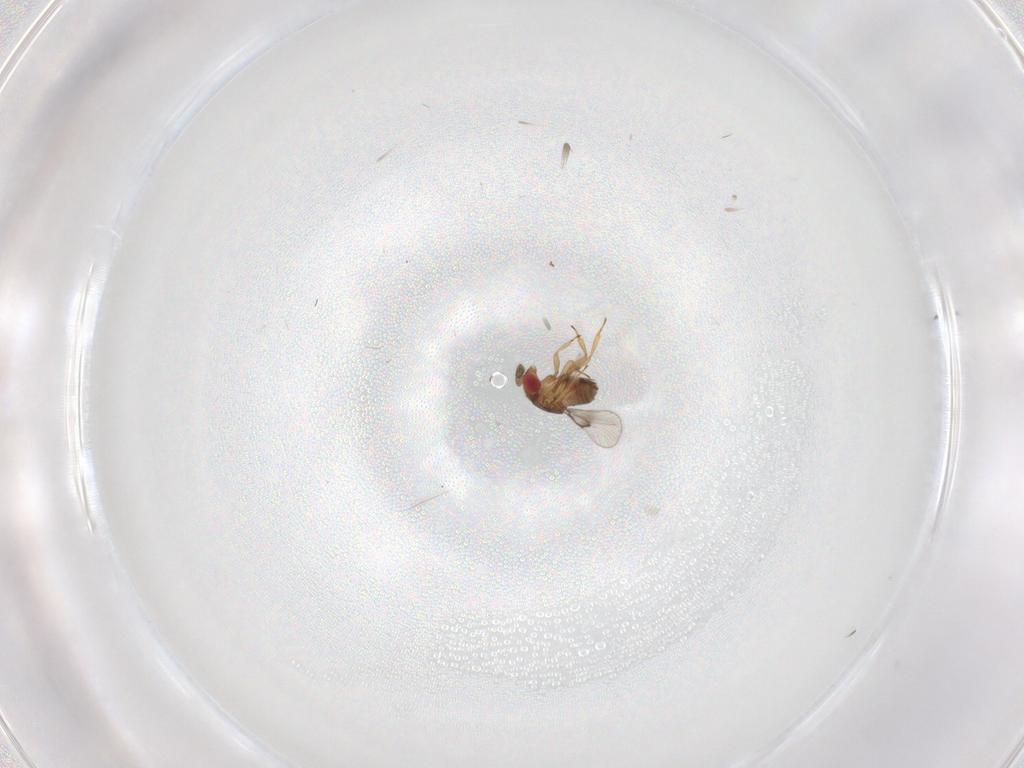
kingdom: Animalia
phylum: Arthropoda
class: Insecta
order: Diptera
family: Cecidomyiidae
